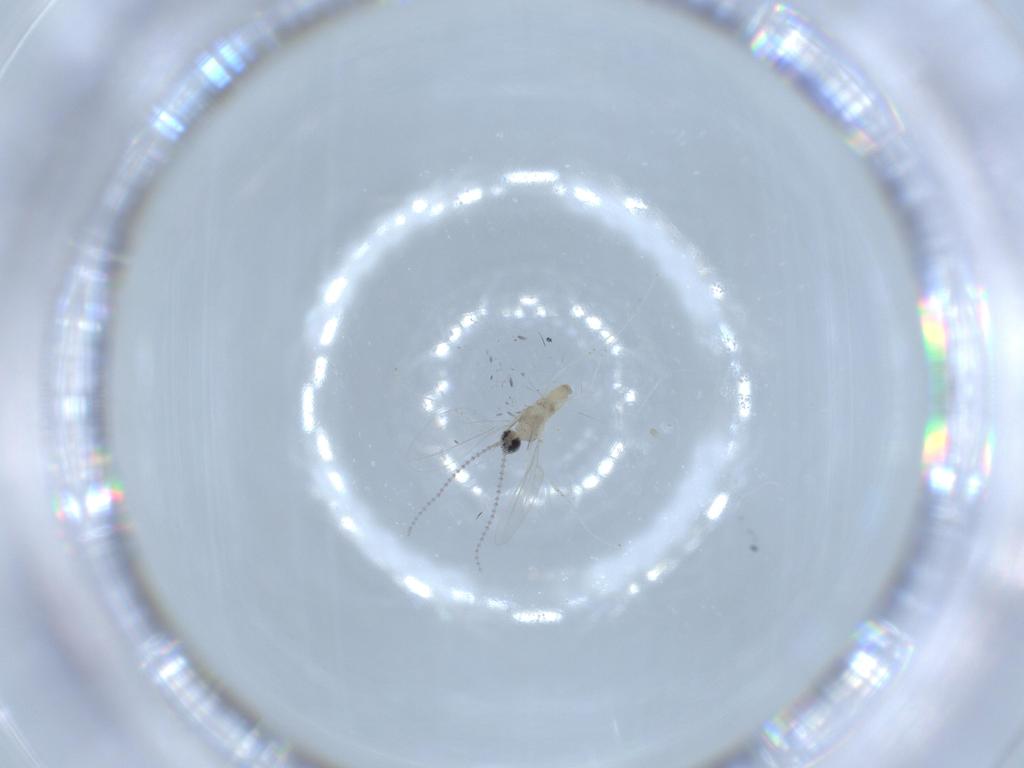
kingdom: Animalia
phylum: Arthropoda
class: Insecta
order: Diptera
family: Cecidomyiidae
